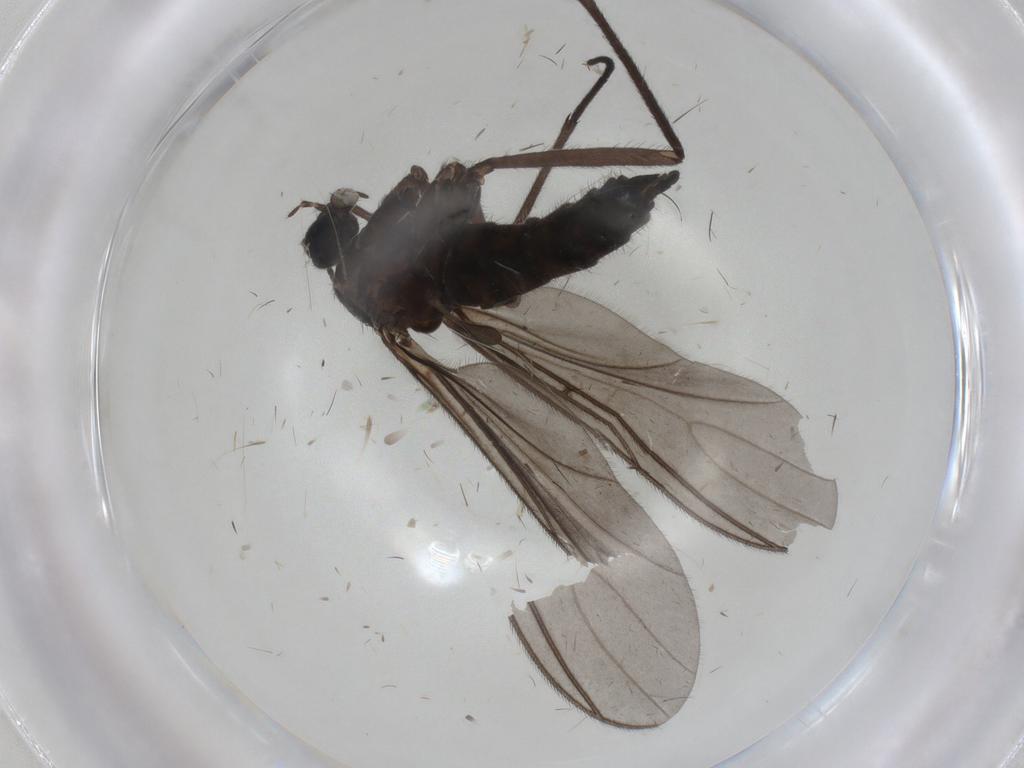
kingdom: Animalia
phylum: Arthropoda
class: Insecta
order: Diptera
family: Sciaridae
